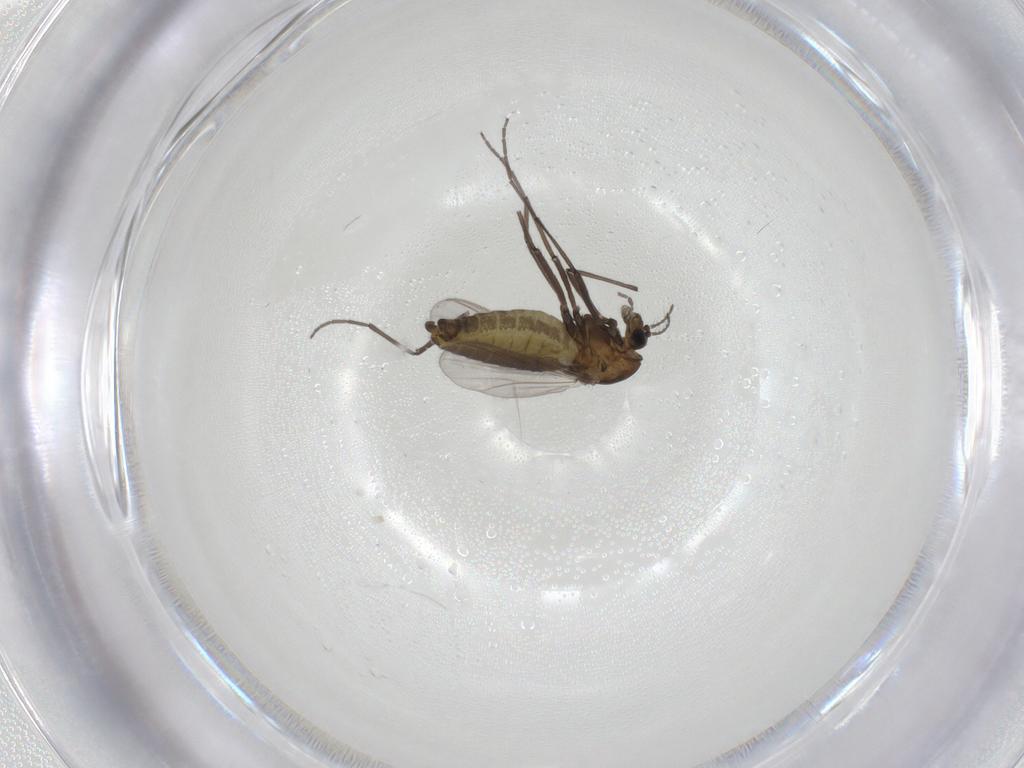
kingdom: Animalia
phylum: Arthropoda
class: Insecta
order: Diptera
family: Chironomidae
